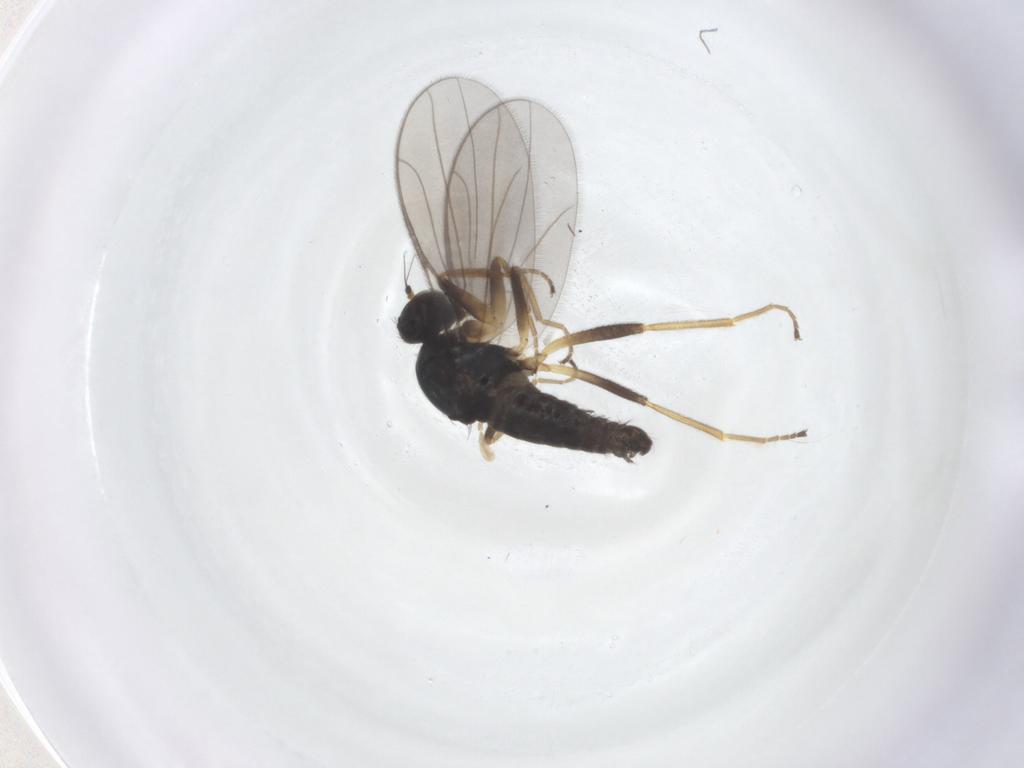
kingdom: Animalia
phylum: Arthropoda
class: Insecta
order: Diptera
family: Hybotidae
